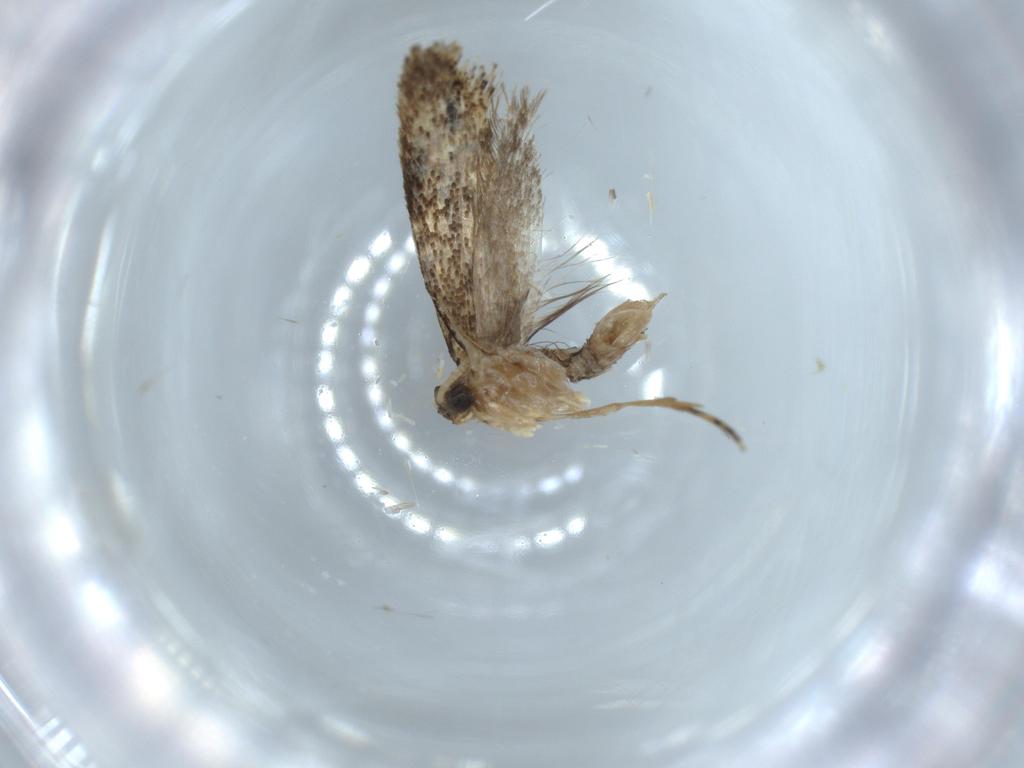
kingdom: Animalia
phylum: Arthropoda
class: Insecta
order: Lepidoptera
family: Tineidae
